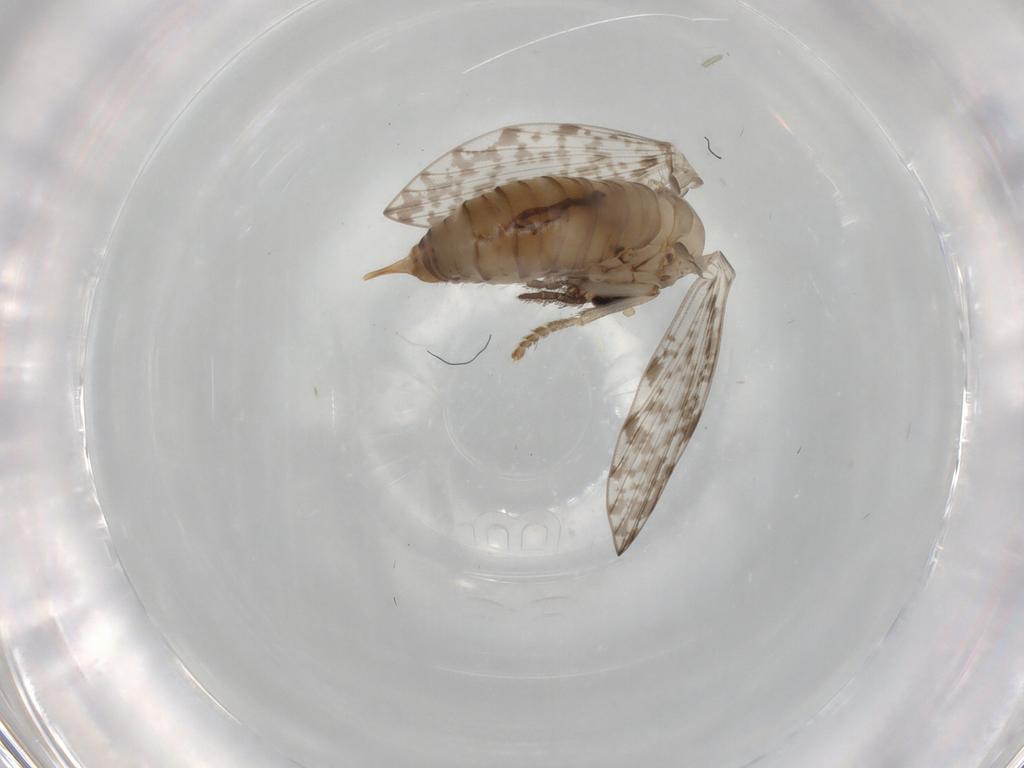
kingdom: Animalia
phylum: Arthropoda
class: Insecta
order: Diptera
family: Psychodidae
